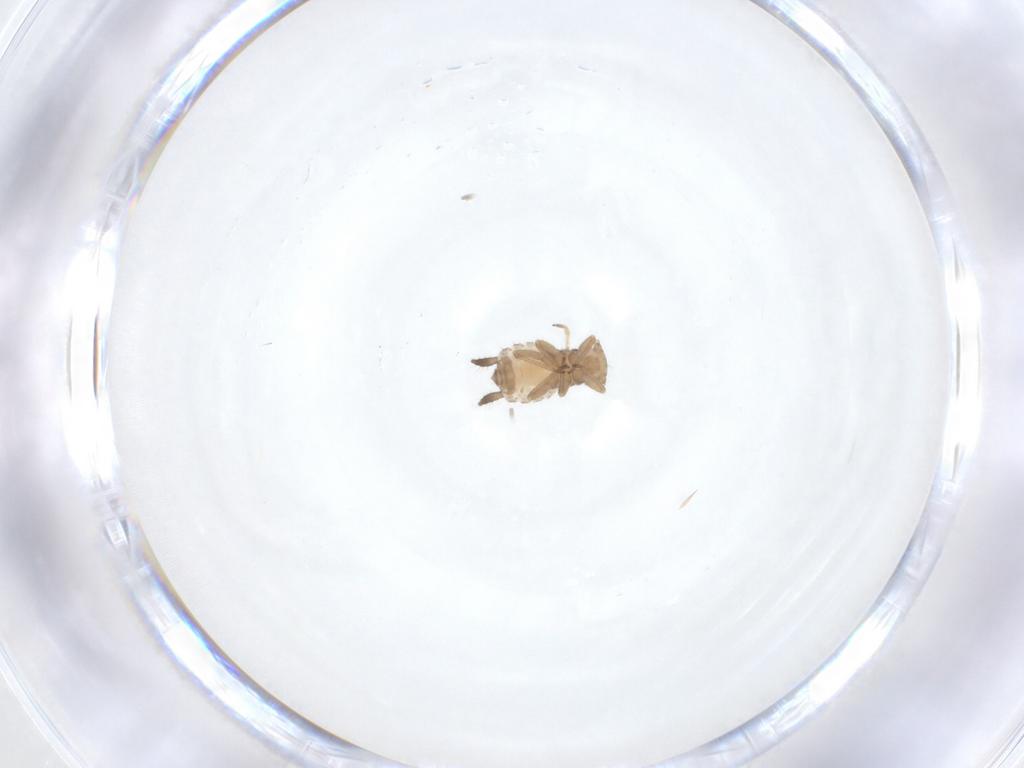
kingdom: Animalia
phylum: Arthropoda
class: Insecta
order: Hemiptera
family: Aphididae
